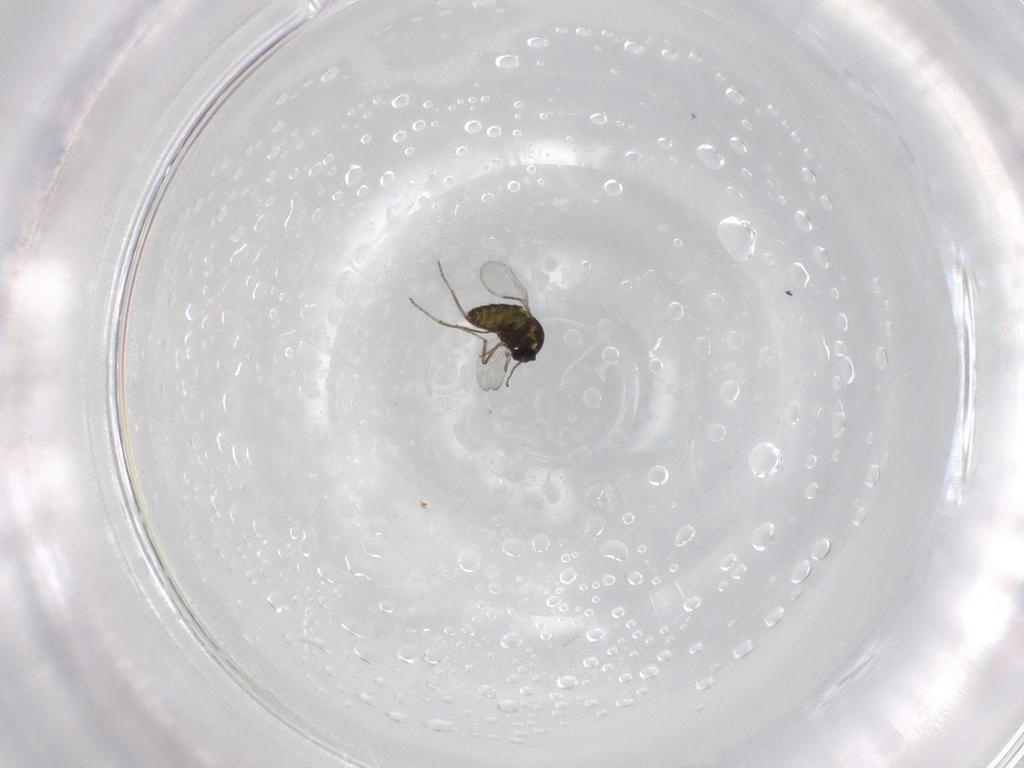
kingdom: Animalia
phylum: Arthropoda
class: Insecta
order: Diptera
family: Ceratopogonidae
